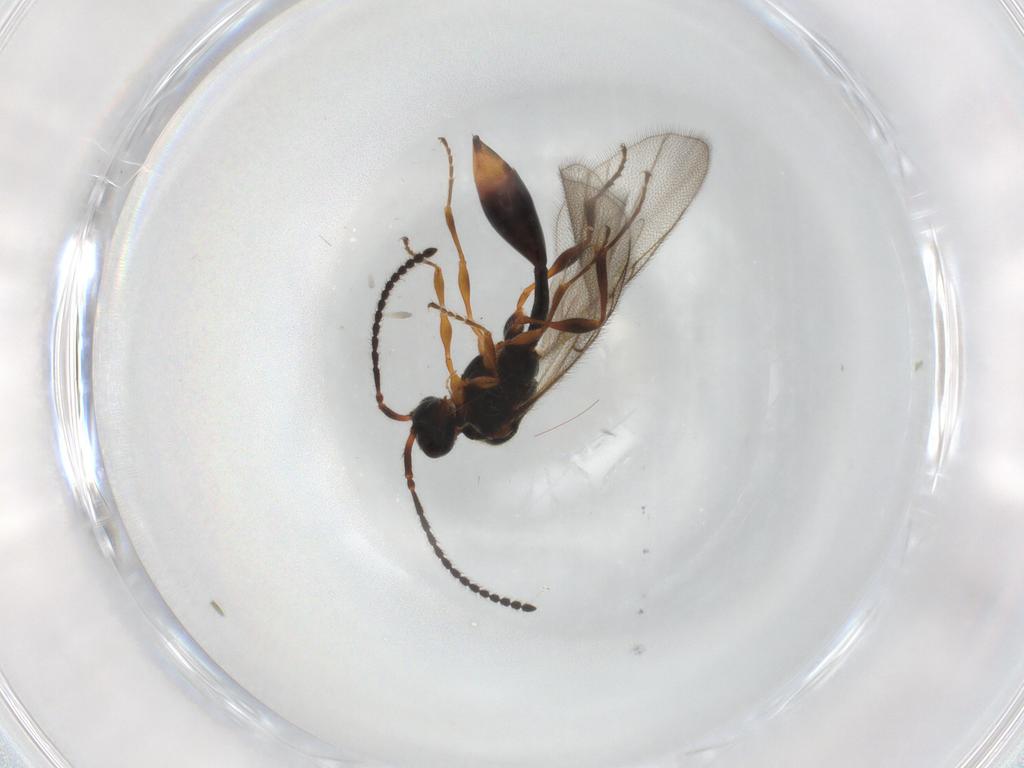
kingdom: Animalia
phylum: Arthropoda
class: Insecta
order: Hymenoptera
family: Diapriidae
